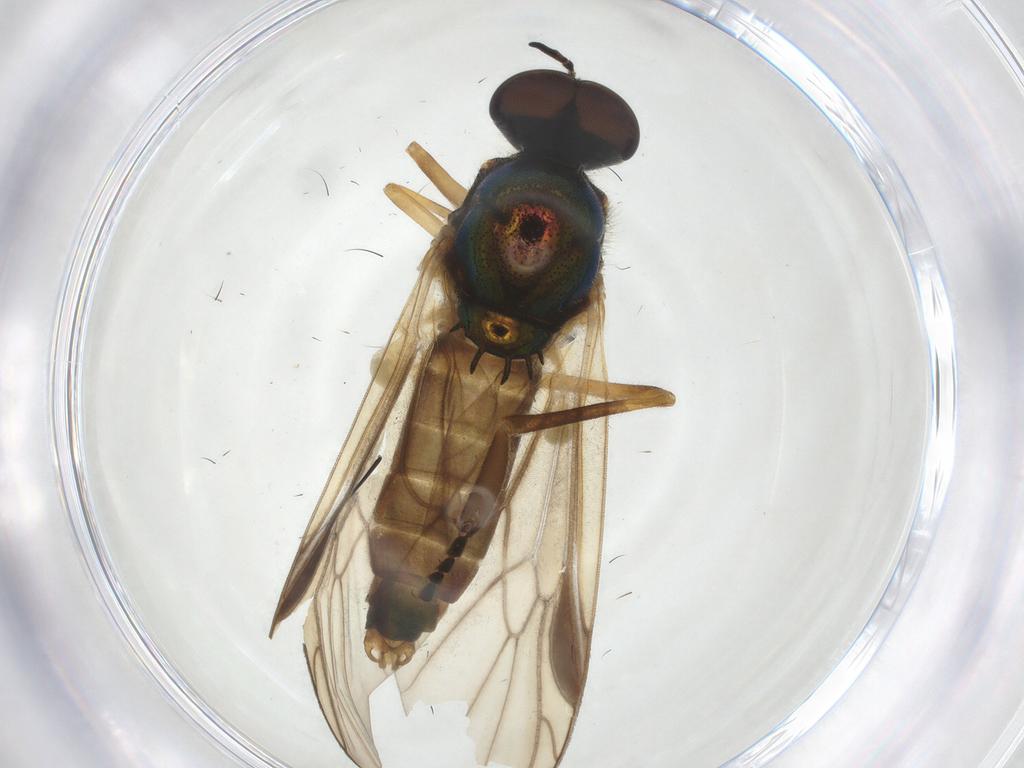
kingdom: Animalia
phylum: Arthropoda
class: Insecta
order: Diptera
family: Stratiomyidae
